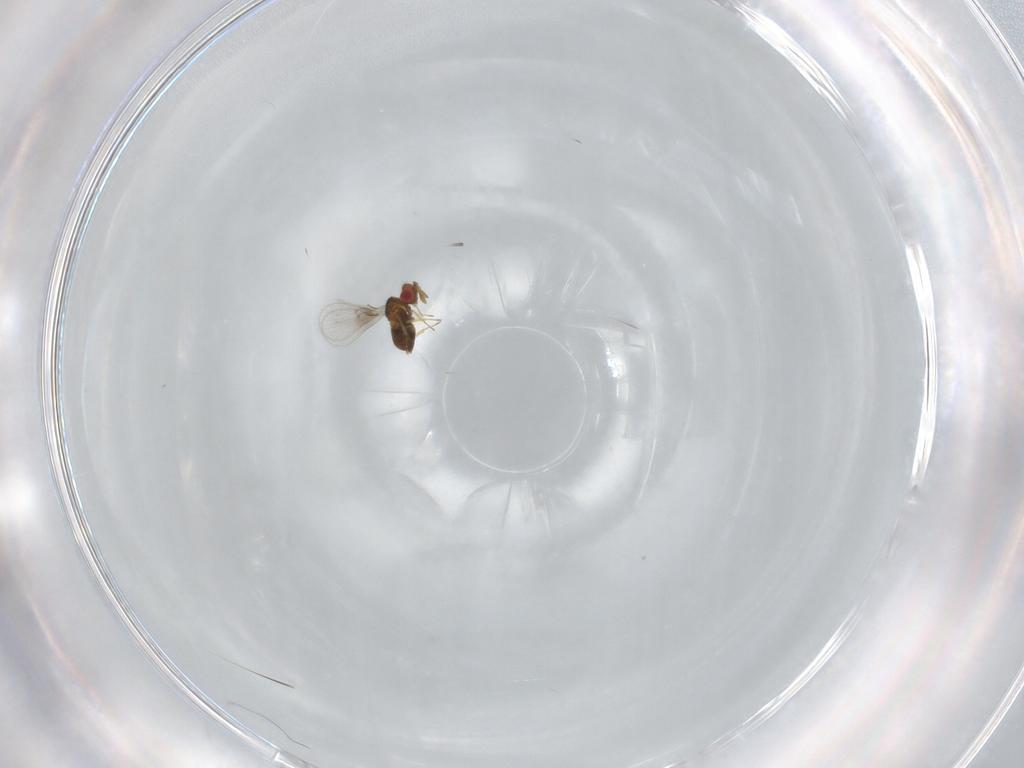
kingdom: Animalia
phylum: Arthropoda
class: Insecta
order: Hymenoptera
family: Trichogrammatidae
